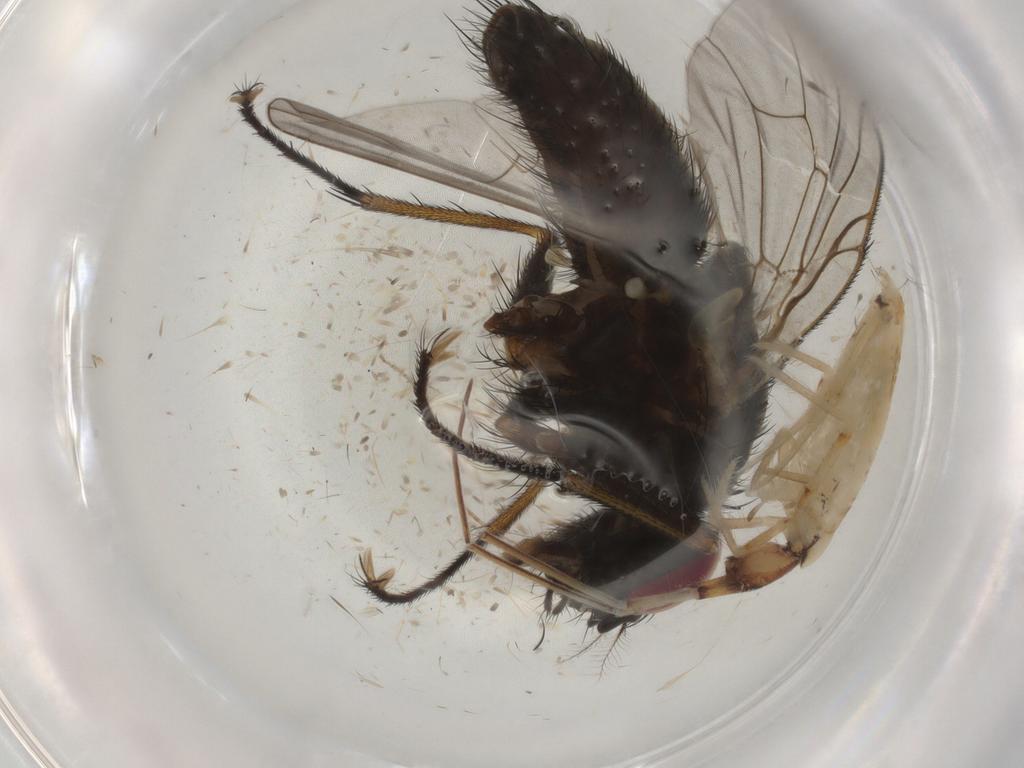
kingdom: Animalia
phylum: Arthropoda
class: Insecta
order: Diptera
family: Muscidae
